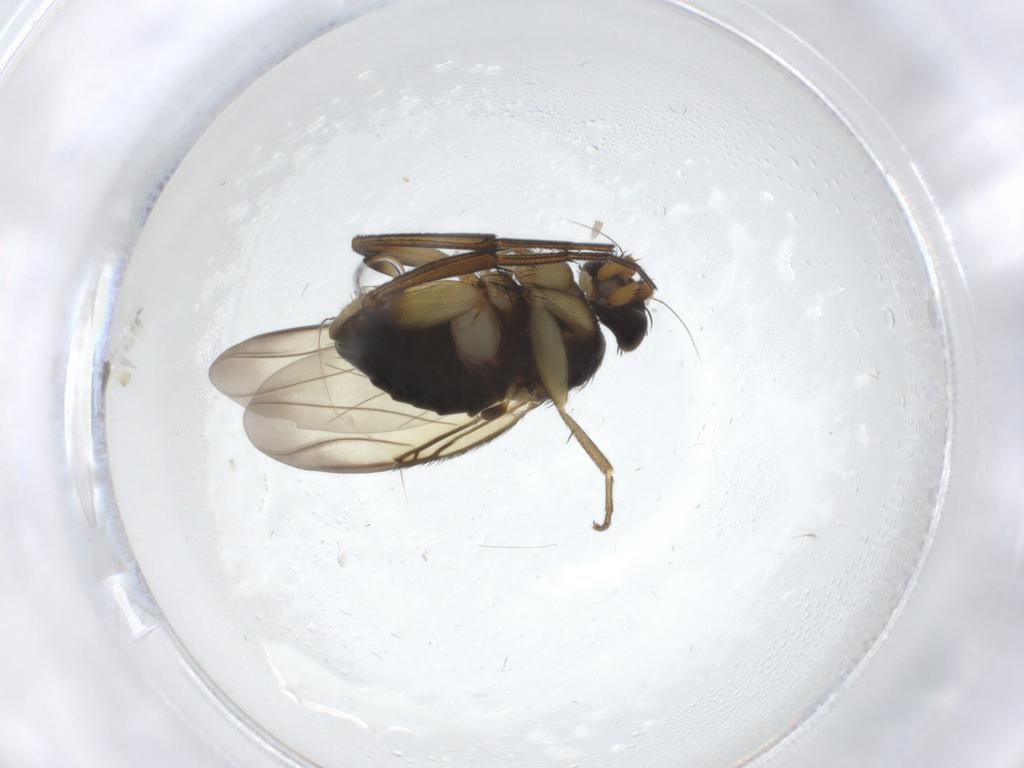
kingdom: Animalia
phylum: Arthropoda
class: Insecta
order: Diptera
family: Phoridae
